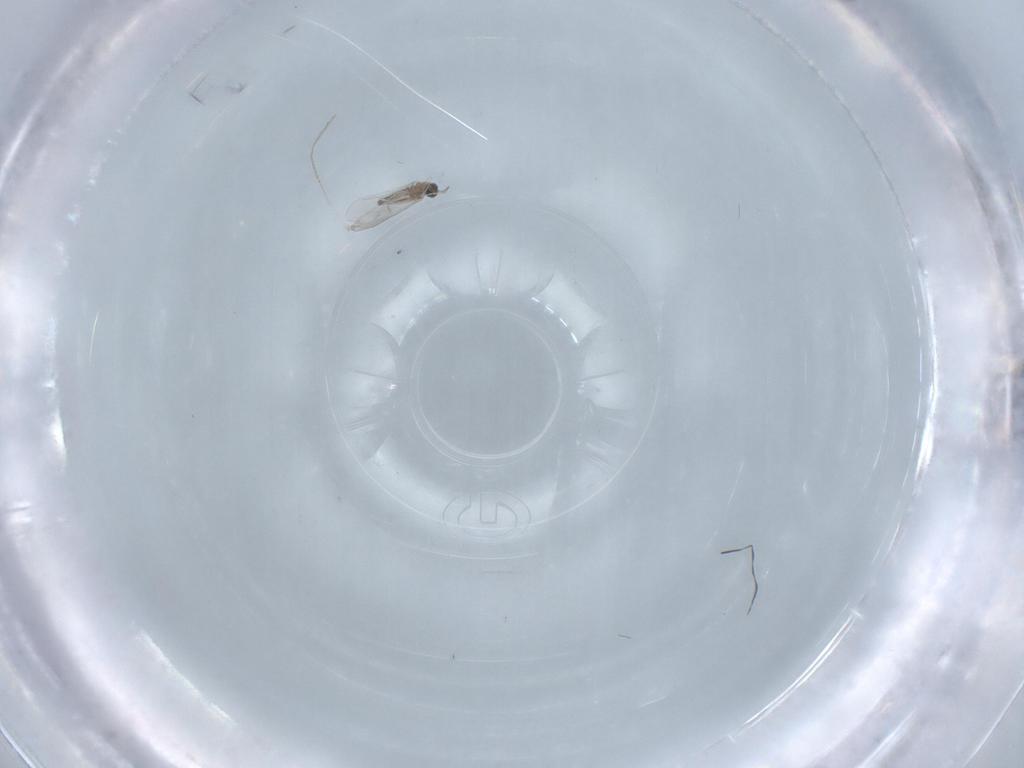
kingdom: Animalia
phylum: Arthropoda
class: Insecta
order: Diptera
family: Cecidomyiidae
